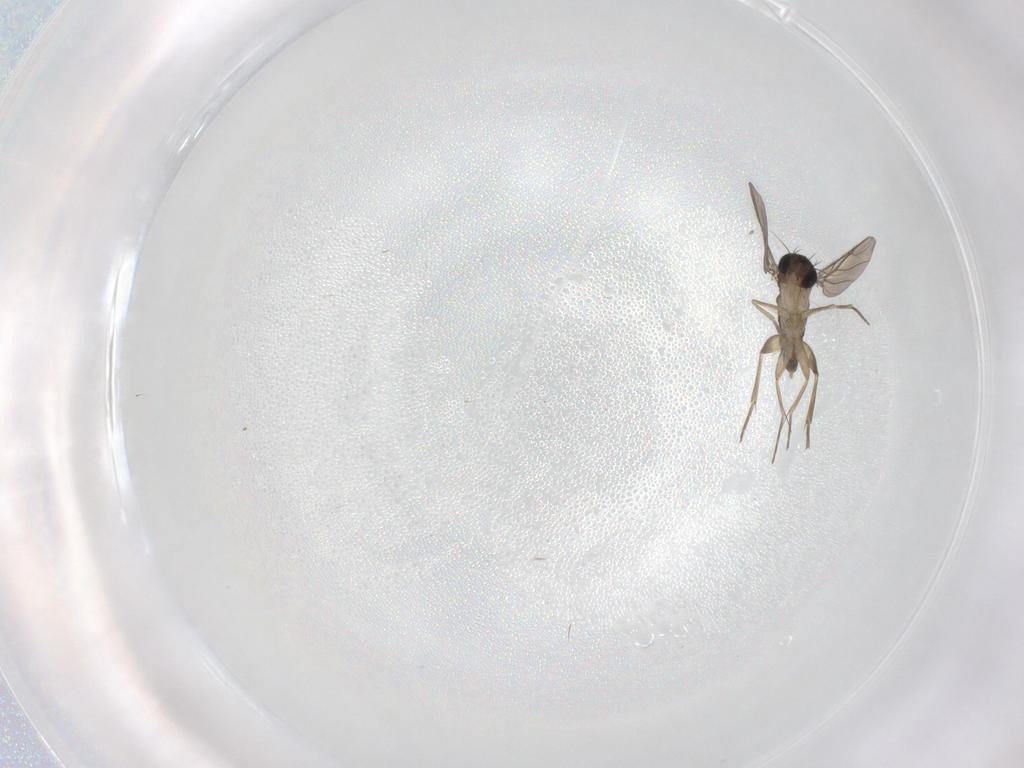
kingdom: Animalia
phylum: Arthropoda
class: Insecta
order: Diptera
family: Phoridae
